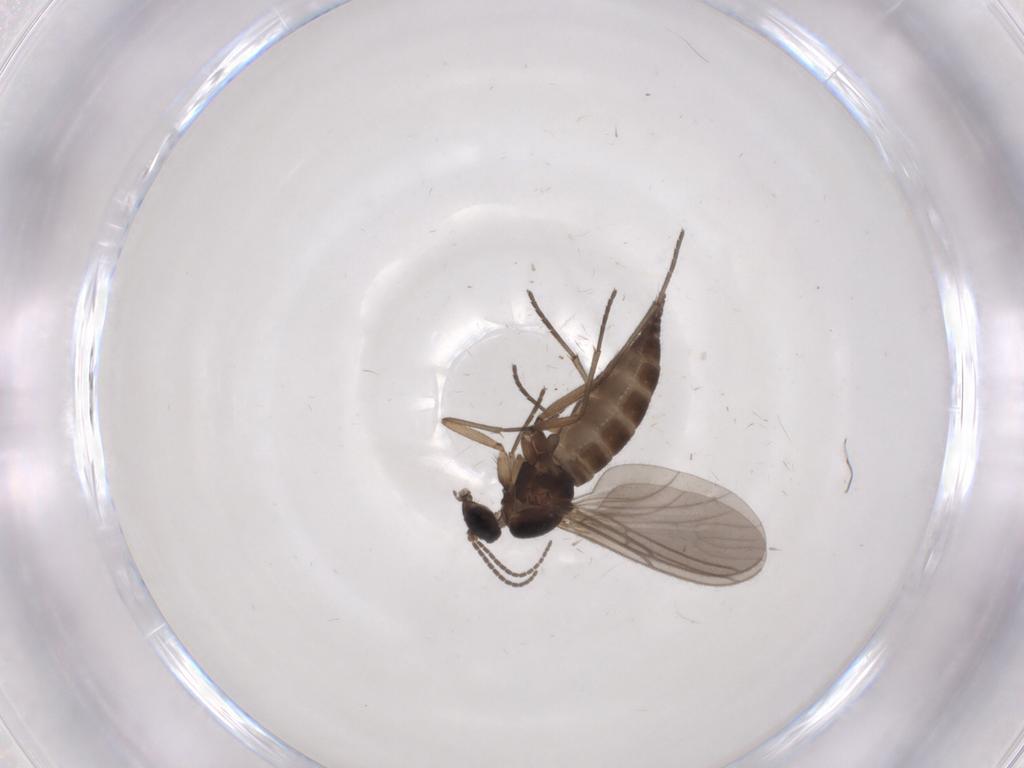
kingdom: Animalia
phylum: Arthropoda
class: Insecta
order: Diptera
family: Sciaridae
